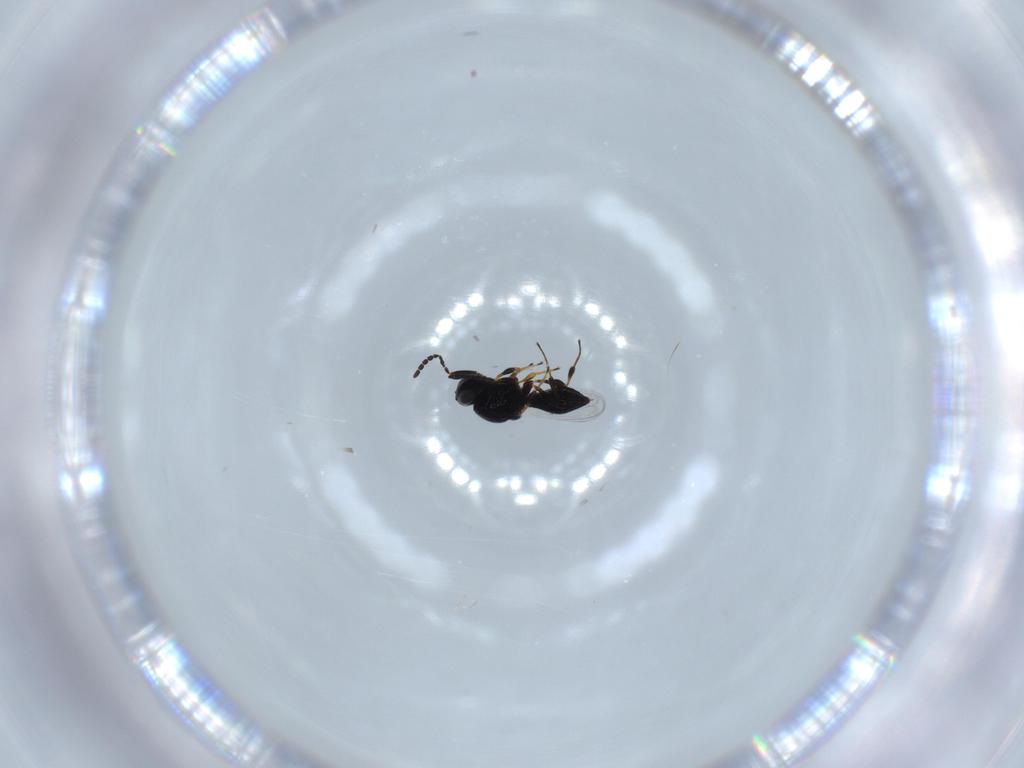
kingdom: Animalia
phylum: Arthropoda
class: Insecta
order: Hymenoptera
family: Platygastridae
